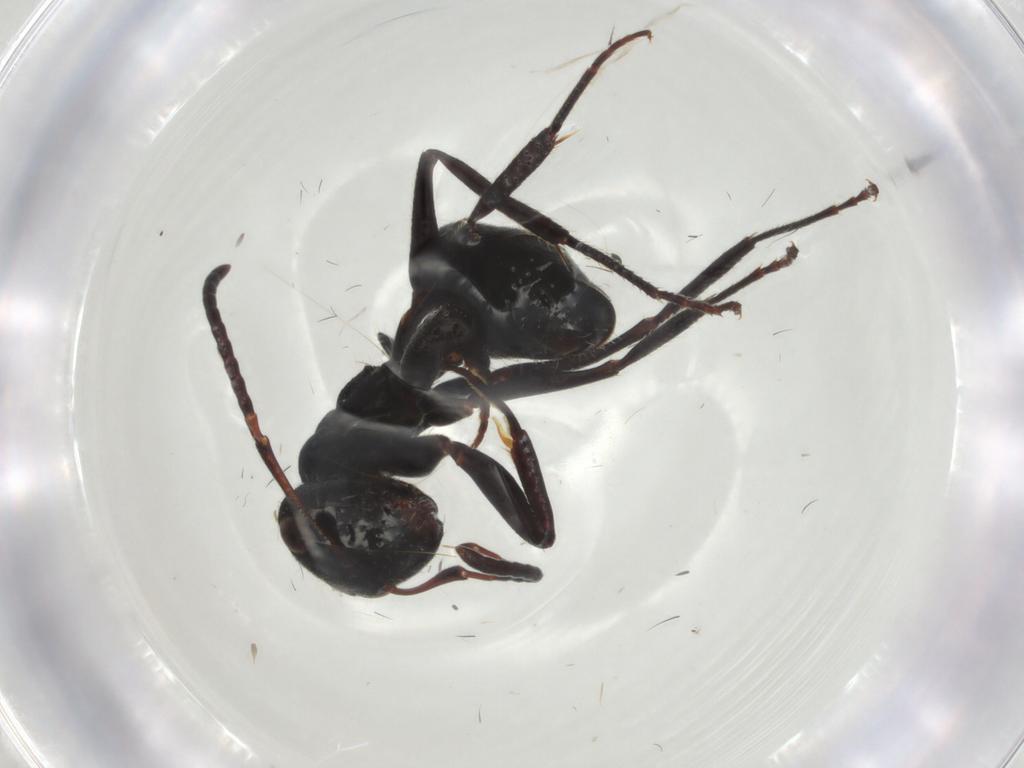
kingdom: Animalia
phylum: Arthropoda
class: Insecta
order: Hymenoptera
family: Formicidae
